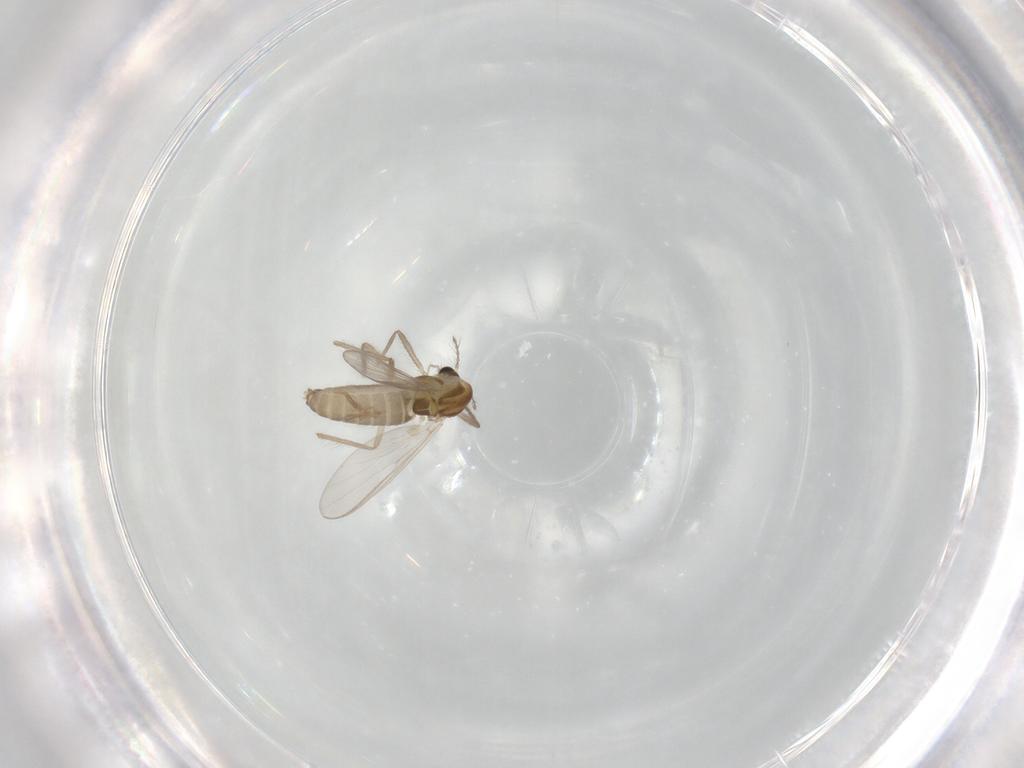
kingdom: Animalia
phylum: Arthropoda
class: Insecta
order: Diptera
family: Chironomidae
